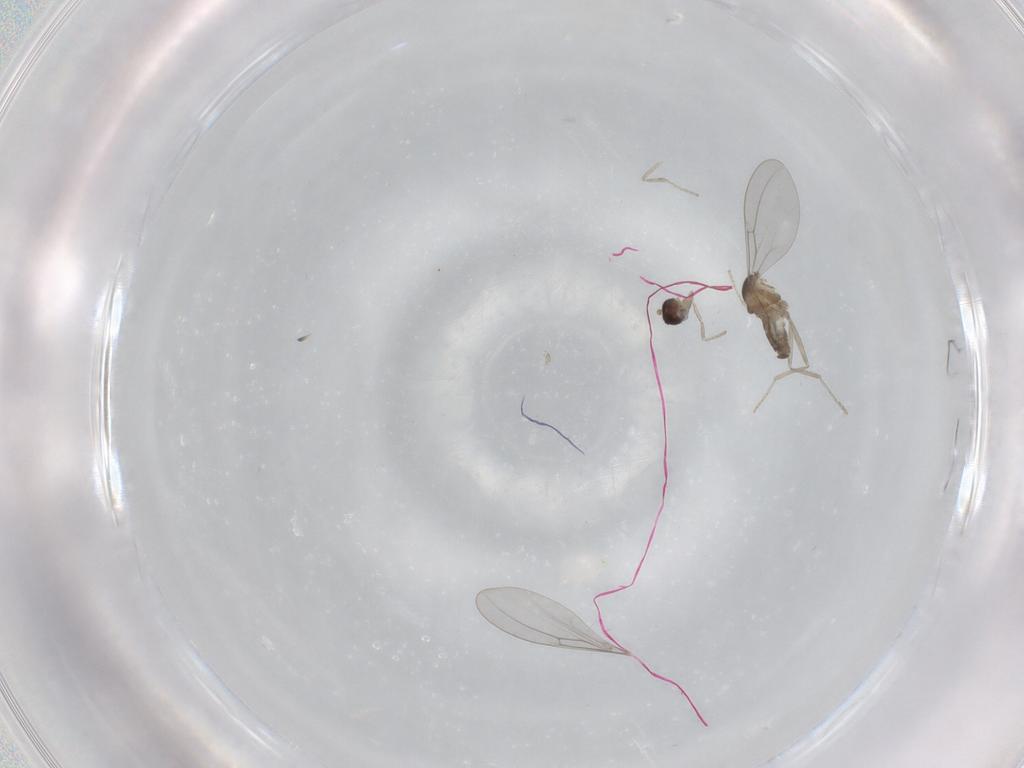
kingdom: Animalia
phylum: Arthropoda
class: Insecta
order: Diptera
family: Cecidomyiidae
